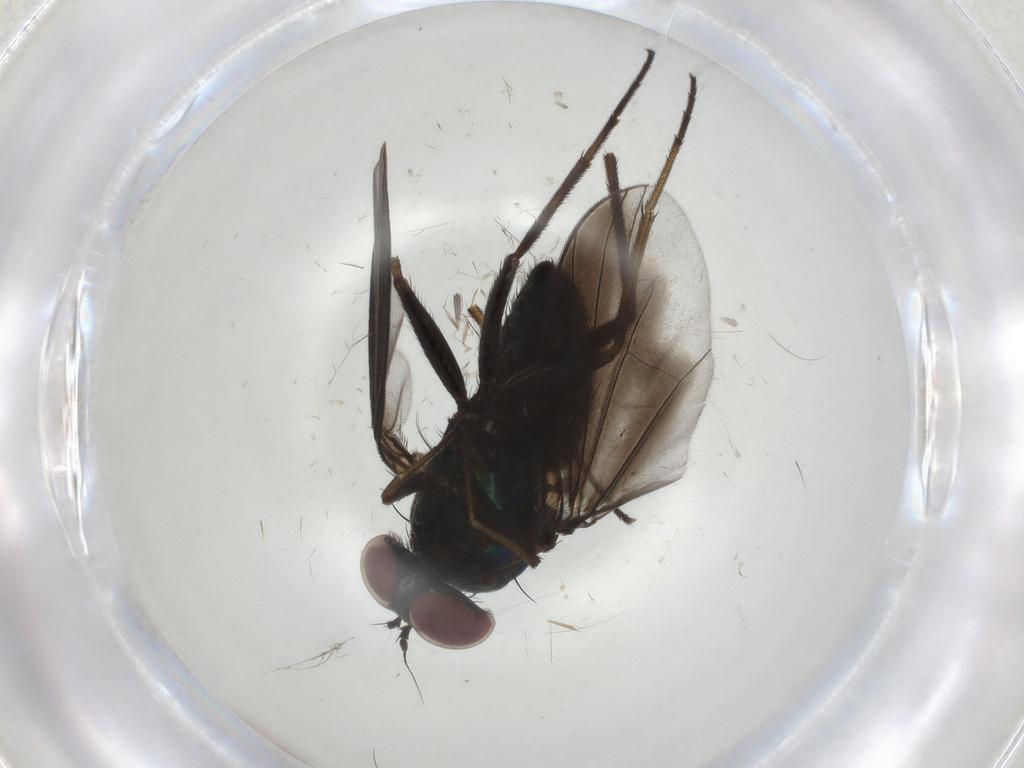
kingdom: Animalia
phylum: Arthropoda
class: Insecta
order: Diptera
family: Dolichopodidae
